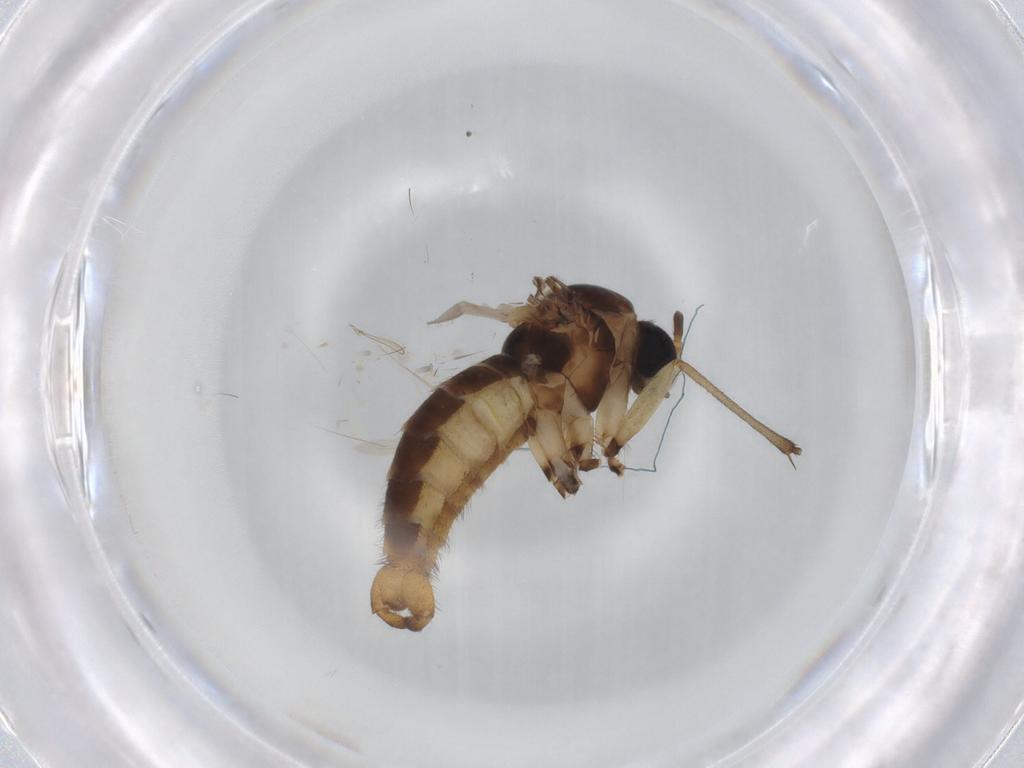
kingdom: Animalia
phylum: Arthropoda
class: Insecta
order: Diptera
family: Sciaridae
